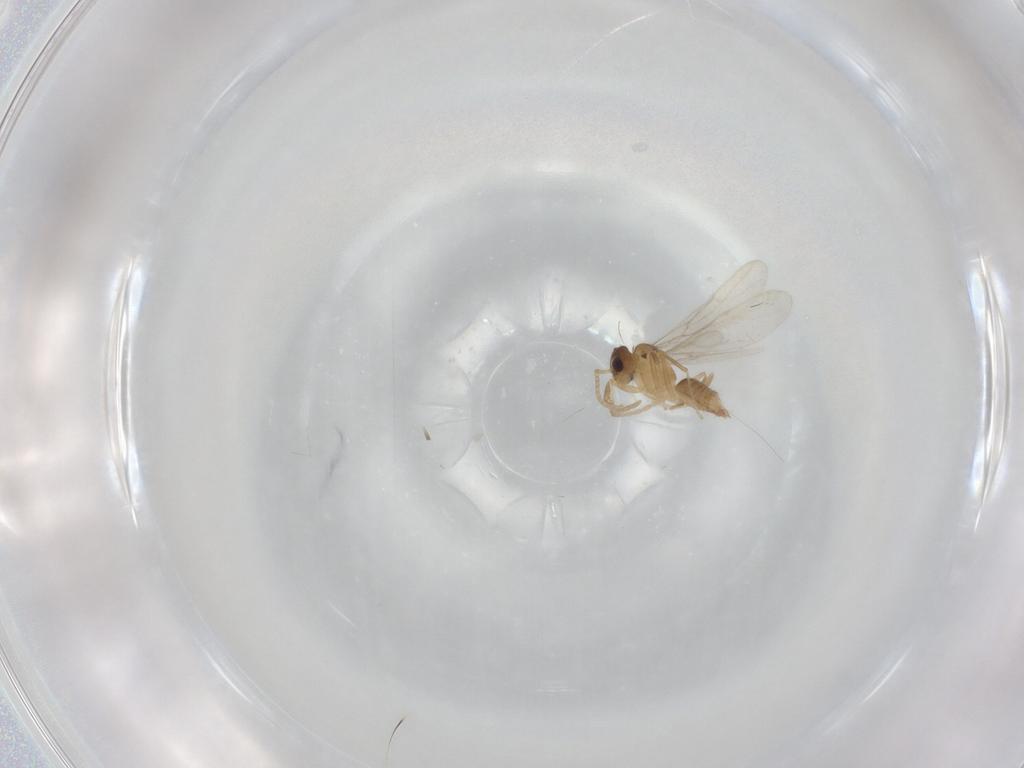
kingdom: Animalia
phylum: Arthropoda
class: Insecta
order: Hymenoptera
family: Formicidae
